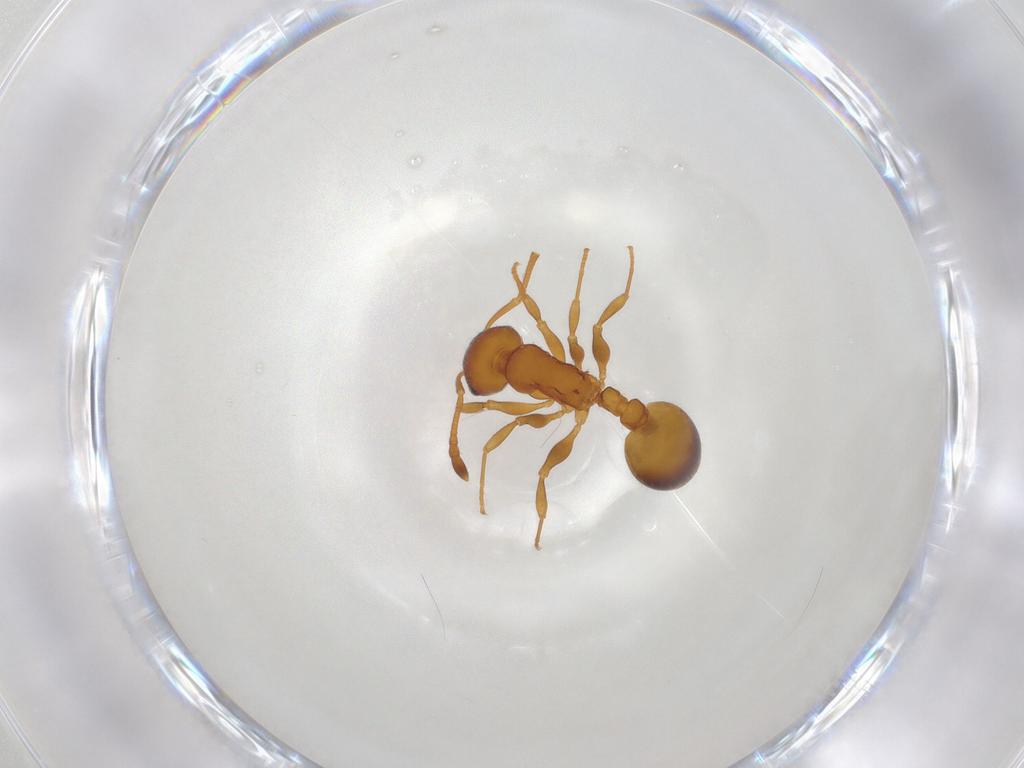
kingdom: Animalia
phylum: Arthropoda
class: Insecta
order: Hymenoptera
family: Formicidae
